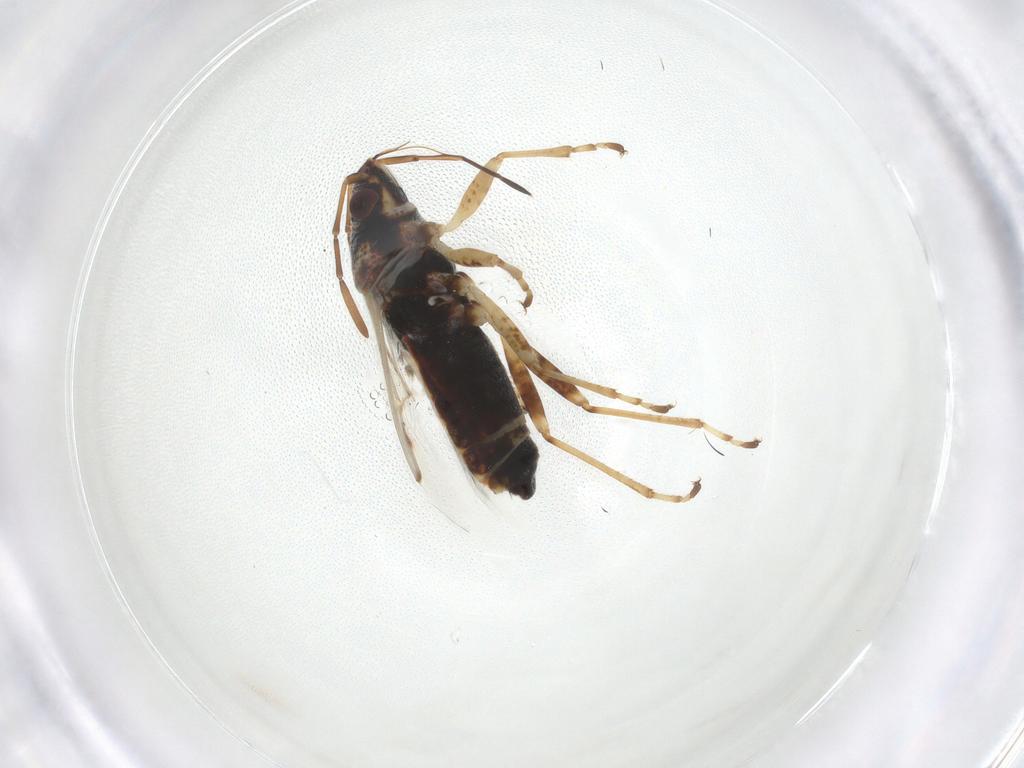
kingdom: Animalia
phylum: Arthropoda
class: Insecta
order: Hemiptera
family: Lygaeidae
